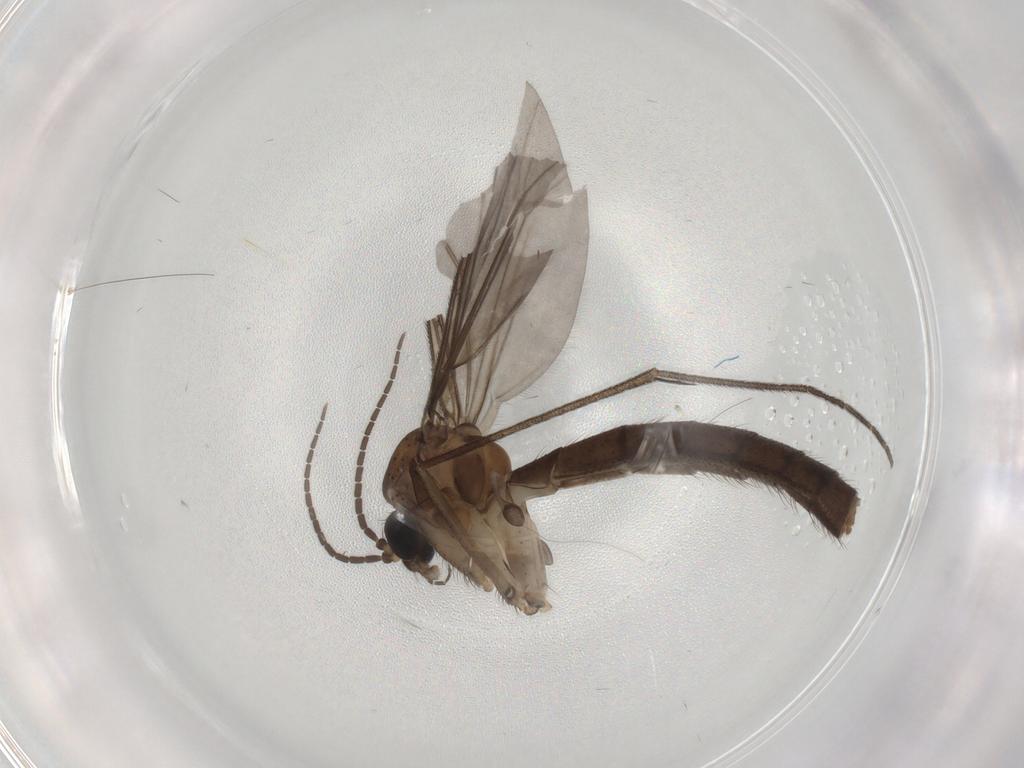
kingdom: Animalia
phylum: Arthropoda
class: Insecta
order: Diptera
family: Mycetophilidae
